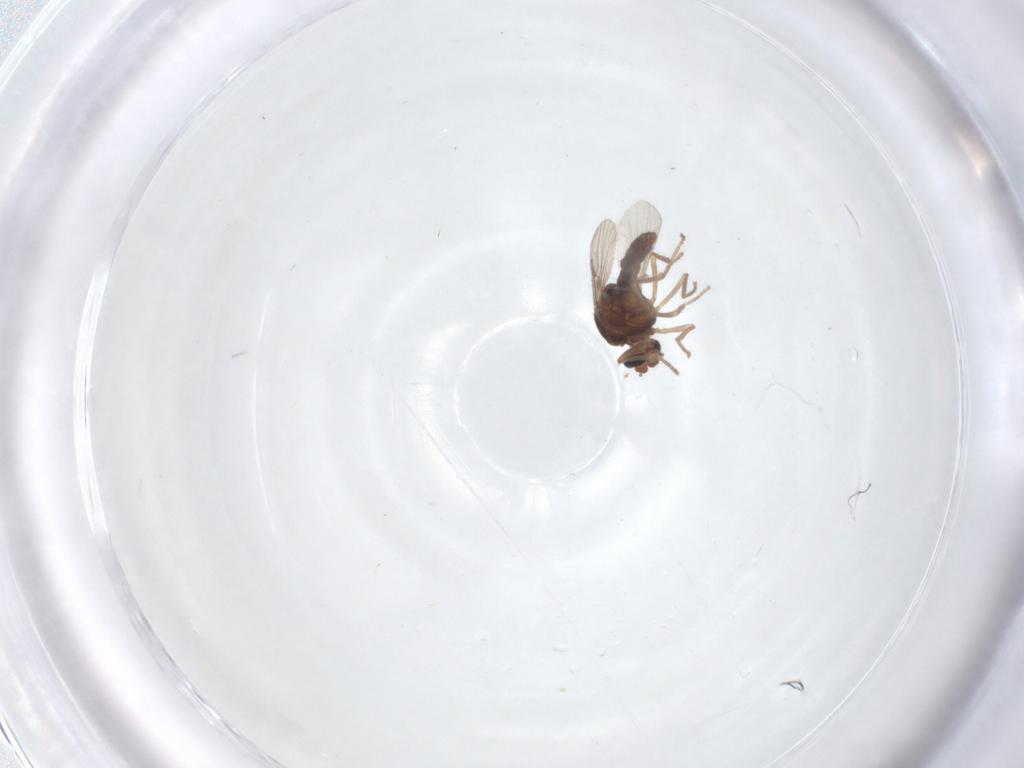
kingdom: Animalia
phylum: Arthropoda
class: Insecta
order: Diptera
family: Ceratopogonidae
